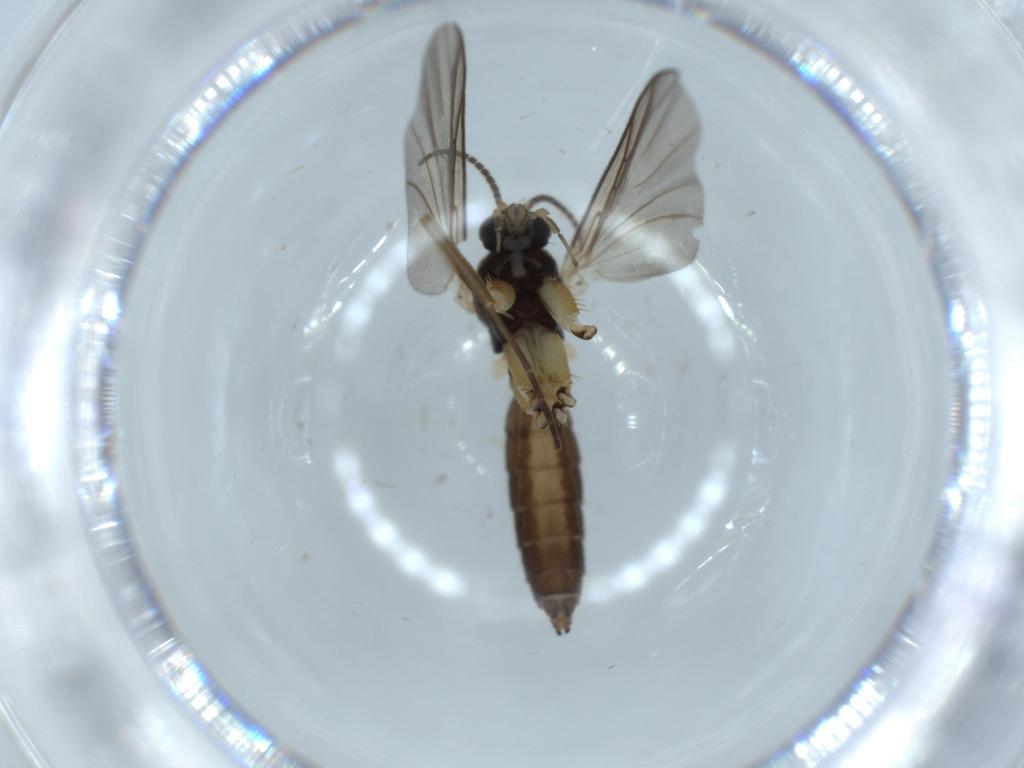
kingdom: Animalia
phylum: Arthropoda
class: Insecta
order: Diptera
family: Mycetophilidae
